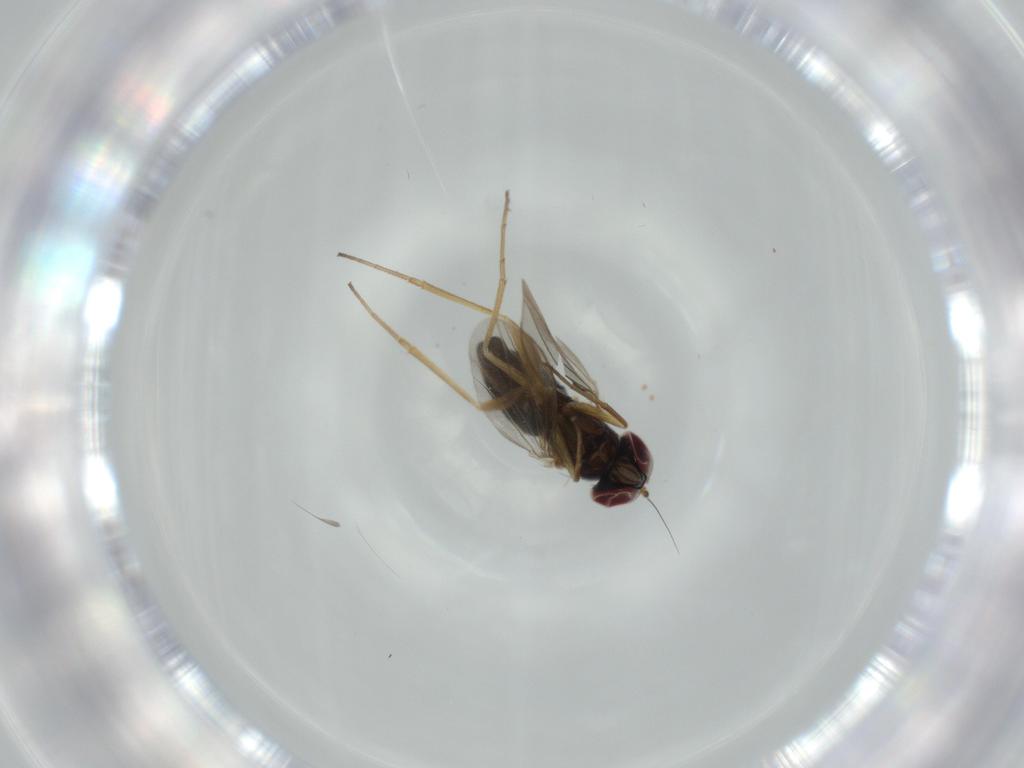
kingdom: Animalia
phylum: Arthropoda
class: Insecta
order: Diptera
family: Dolichopodidae
